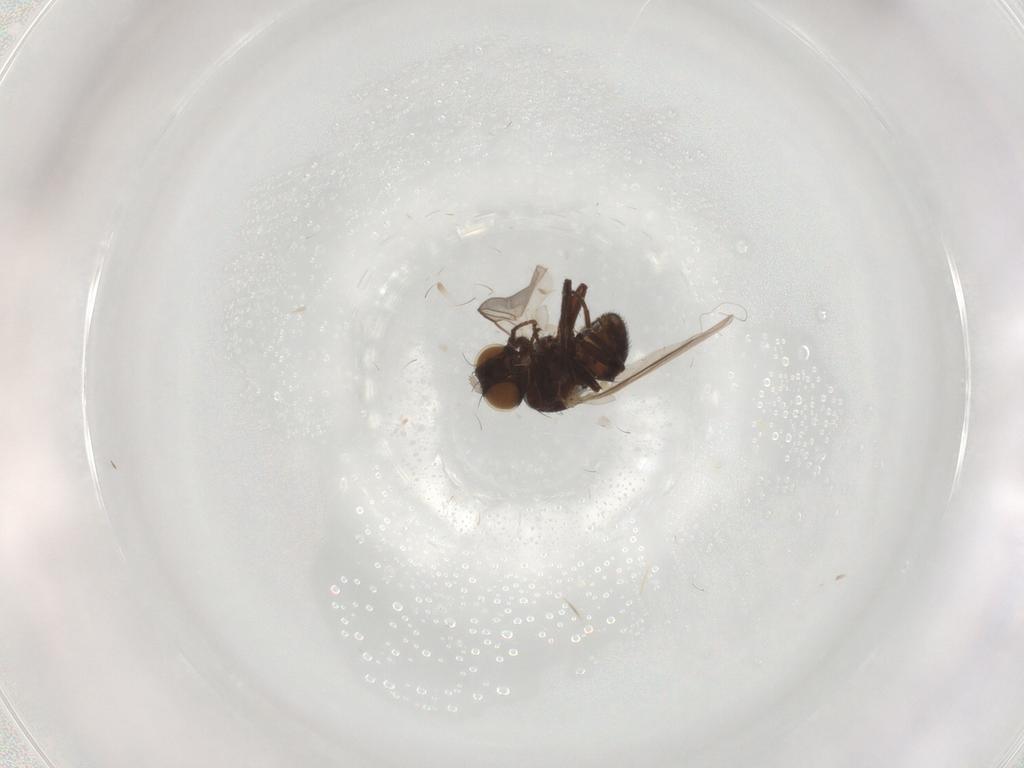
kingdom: Animalia
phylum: Arthropoda
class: Insecta
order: Diptera
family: Agromyzidae
